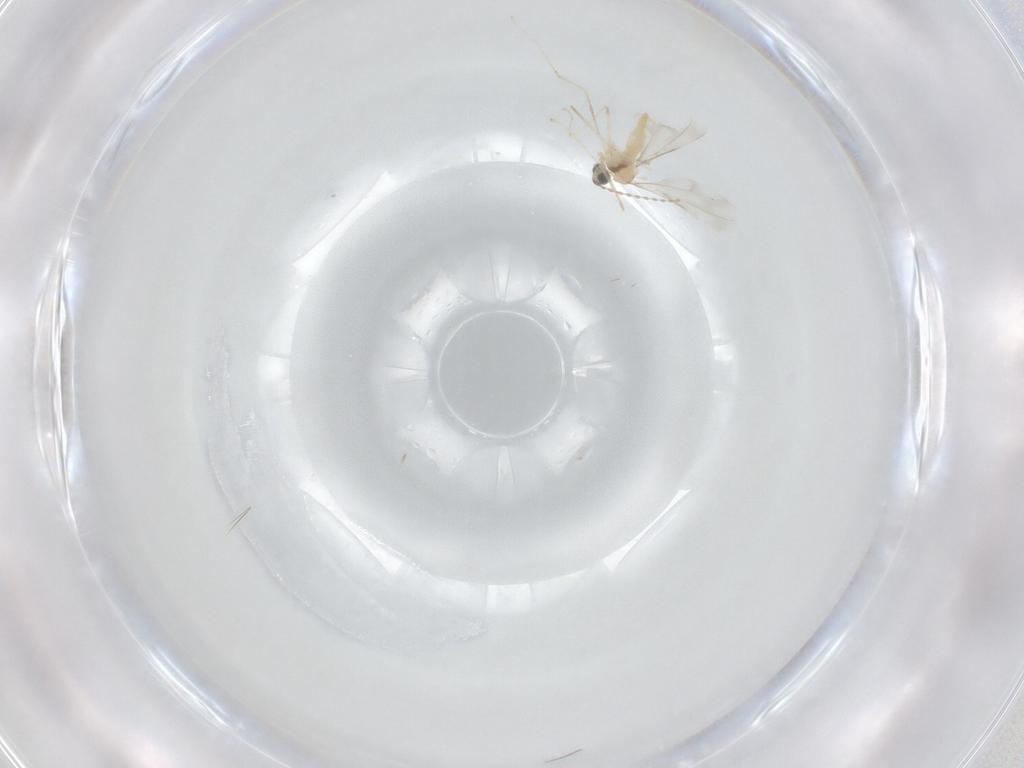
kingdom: Animalia
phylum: Arthropoda
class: Insecta
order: Diptera
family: Cecidomyiidae
